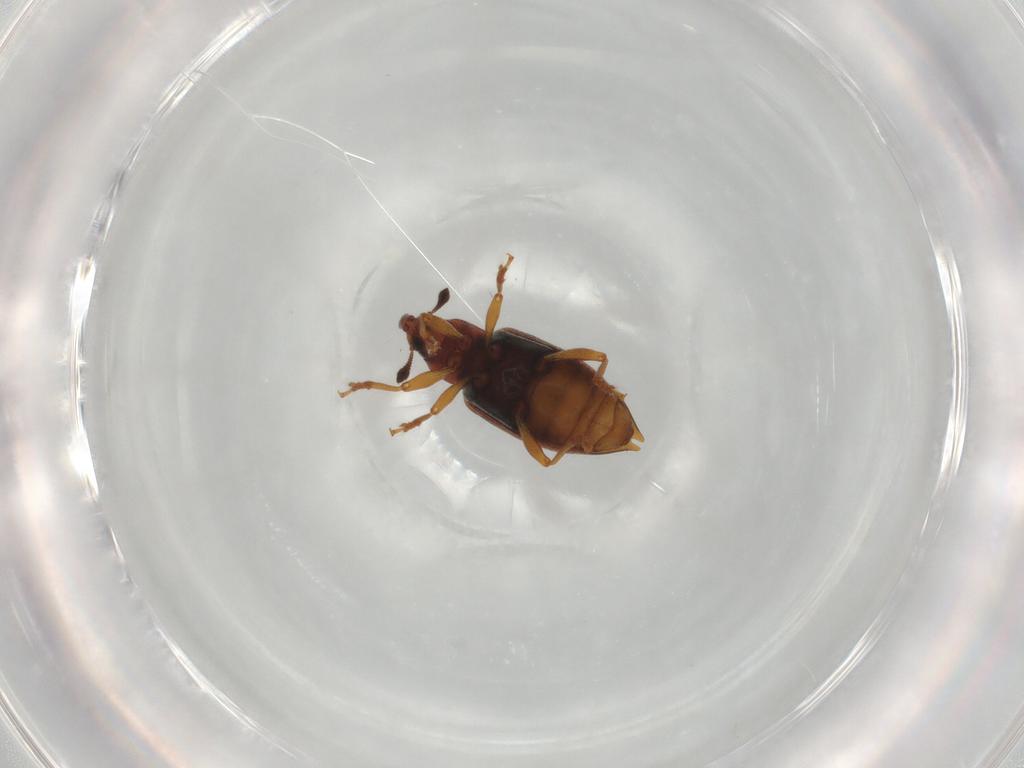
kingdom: Animalia
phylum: Arthropoda
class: Insecta
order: Coleoptera
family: Curculionidae
